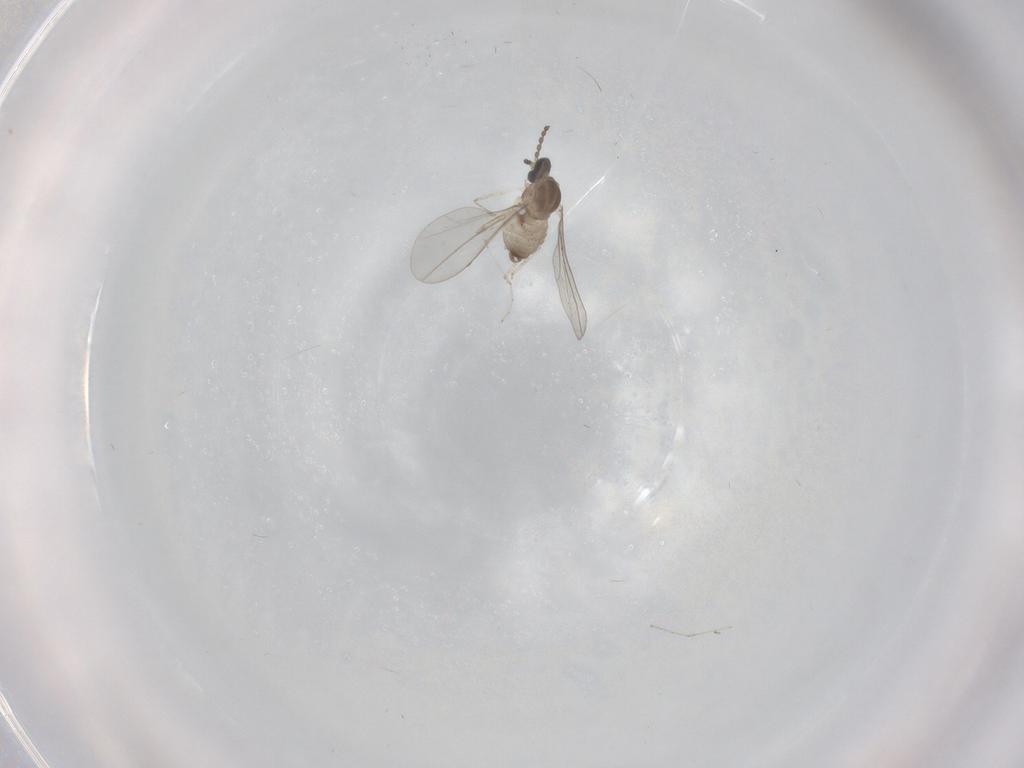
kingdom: Animalia
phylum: Arthropoda
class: Insecta
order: Diptera
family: Cecidomyiidae
